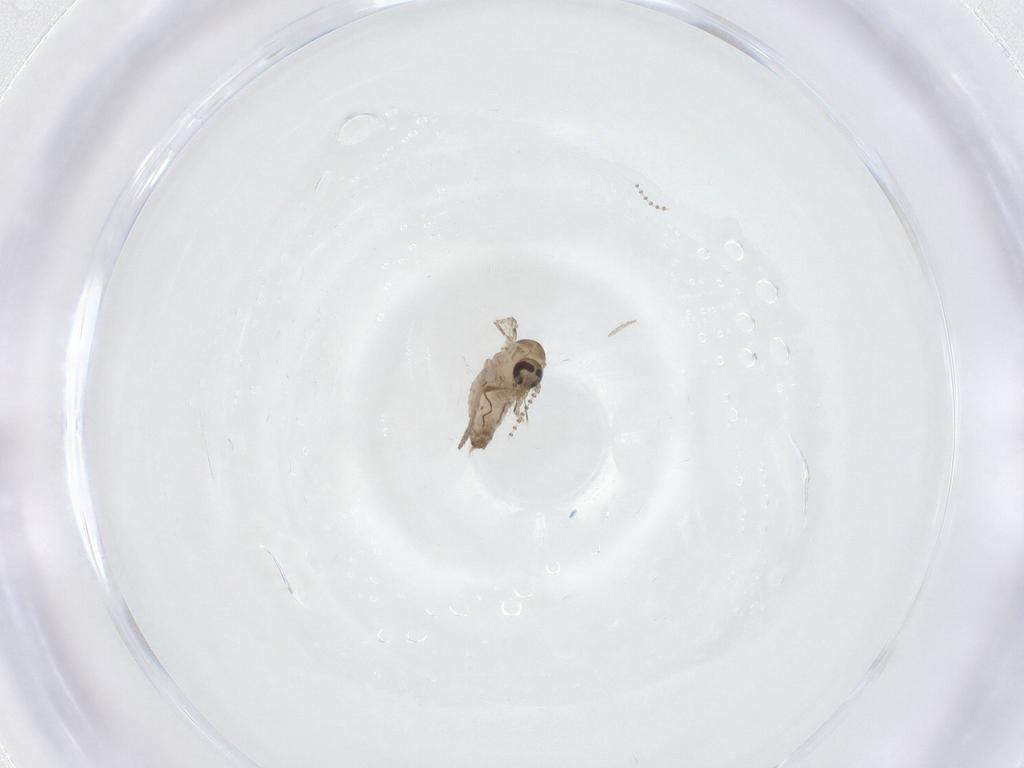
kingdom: Animalia
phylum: Arthropoda
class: Insecta
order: Diptera
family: Psychodidae
